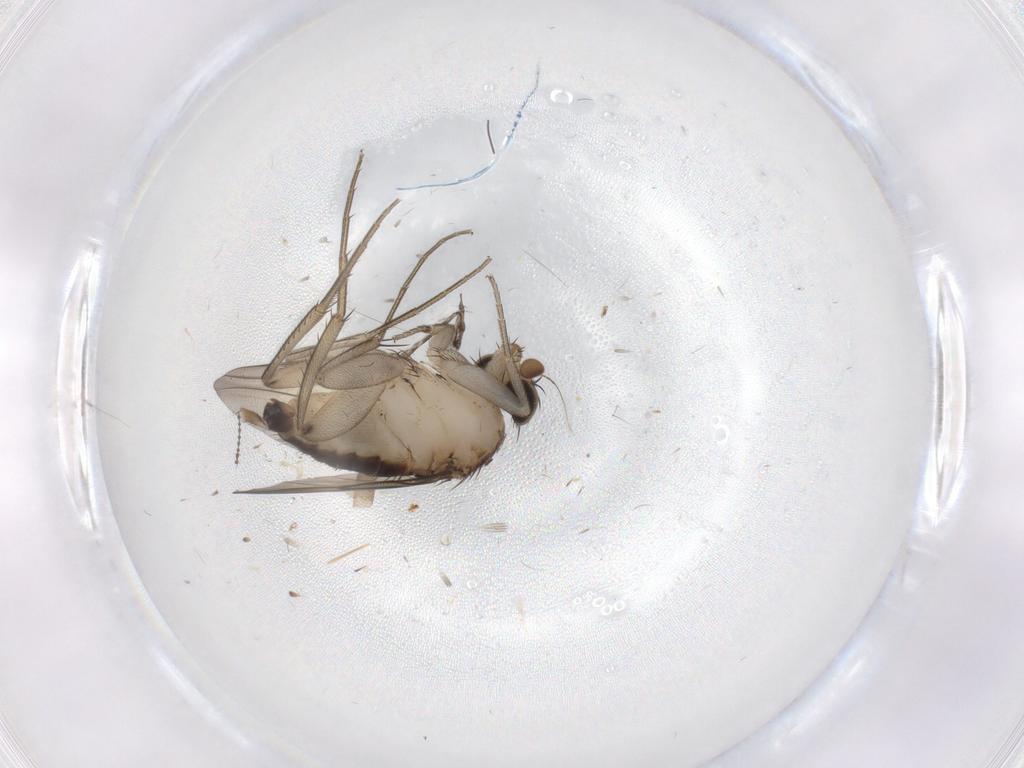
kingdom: Animalia
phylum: Arthropoda
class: Insecta
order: Diptera
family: Phoridae
